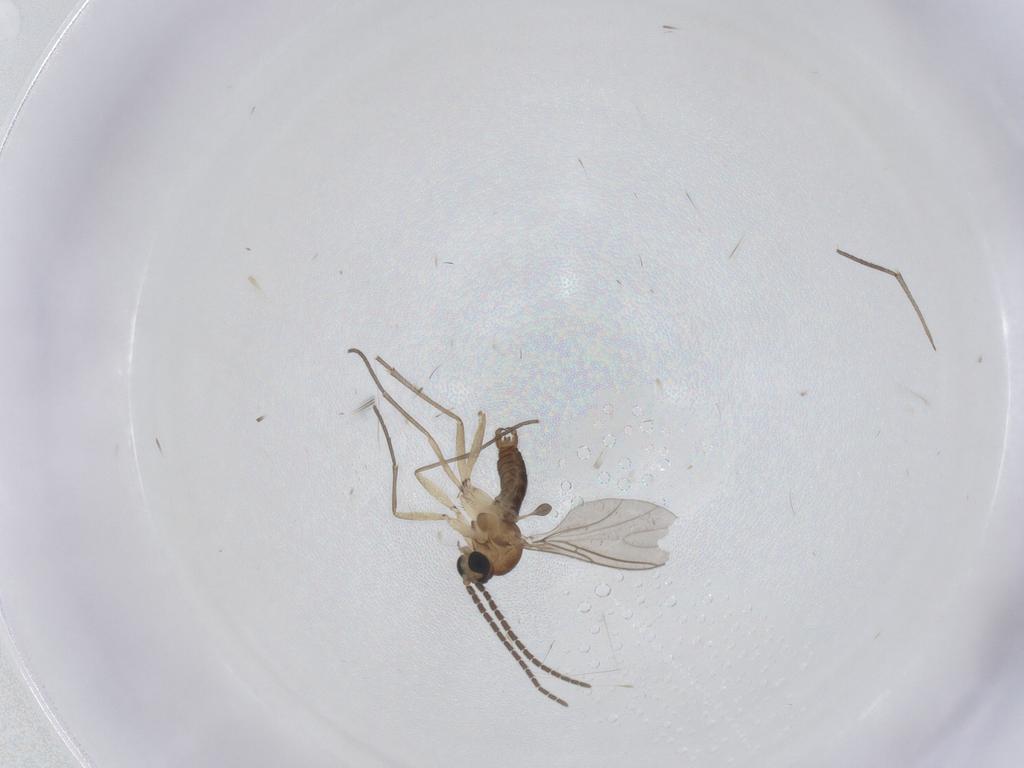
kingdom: Animalia
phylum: Arthropoda
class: Insecta
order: Diptera
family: Sciaridae
